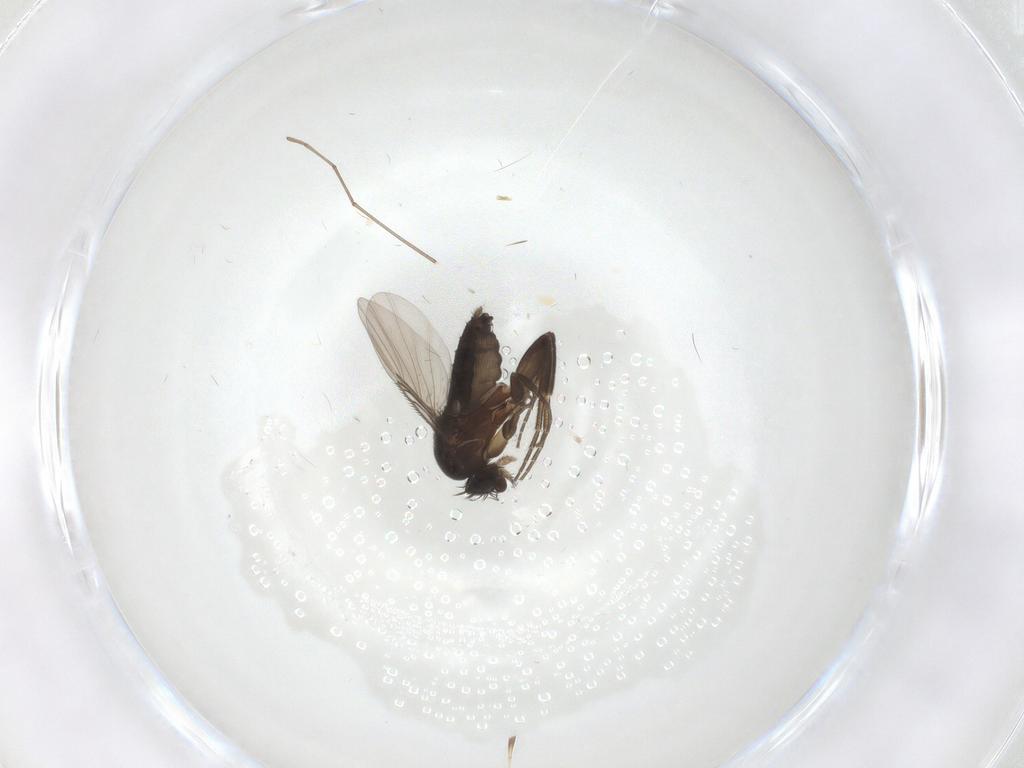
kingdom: Animalia
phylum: Arthropoda
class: Insecta
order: Diptera
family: Phoridae
